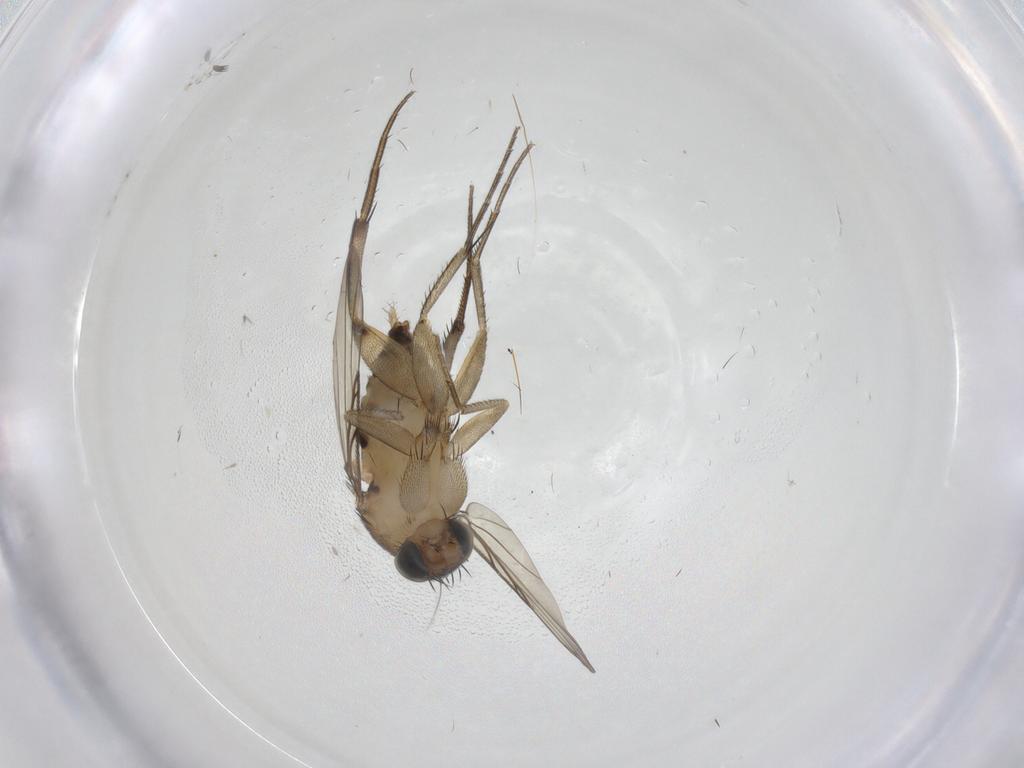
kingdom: Animalia
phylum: Arthropoda
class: Insecta
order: Diptera
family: Phoridae
